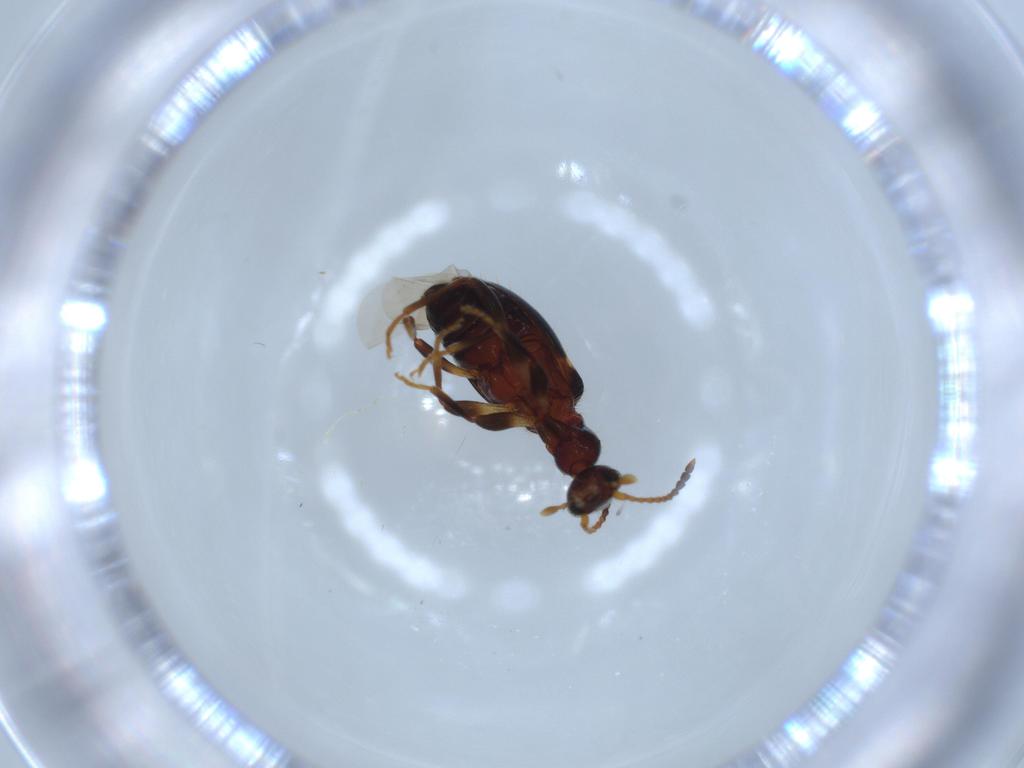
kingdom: Animalia
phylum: Arthropoda
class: Insecta
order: Coleoptera
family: Anthicidae
